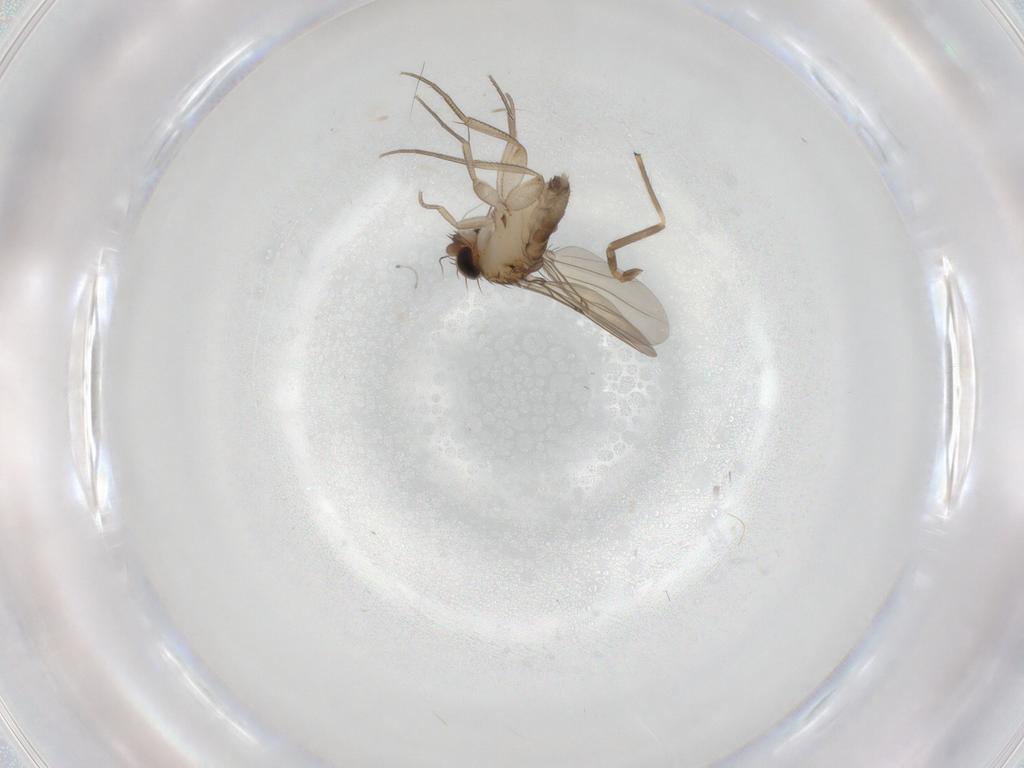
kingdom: Animalia
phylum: Arthropoda
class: Insecta
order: Diptera
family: Phoridae
